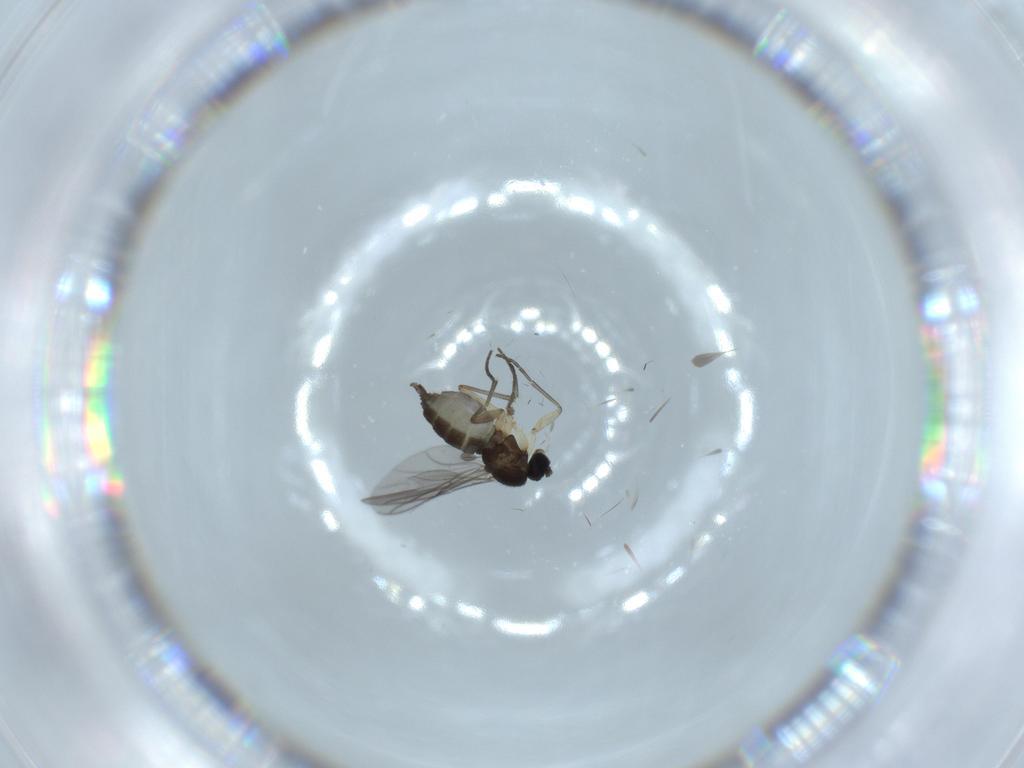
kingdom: Animalia
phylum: Arthropoda
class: Insecta
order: Diptera
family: Sciaridae
